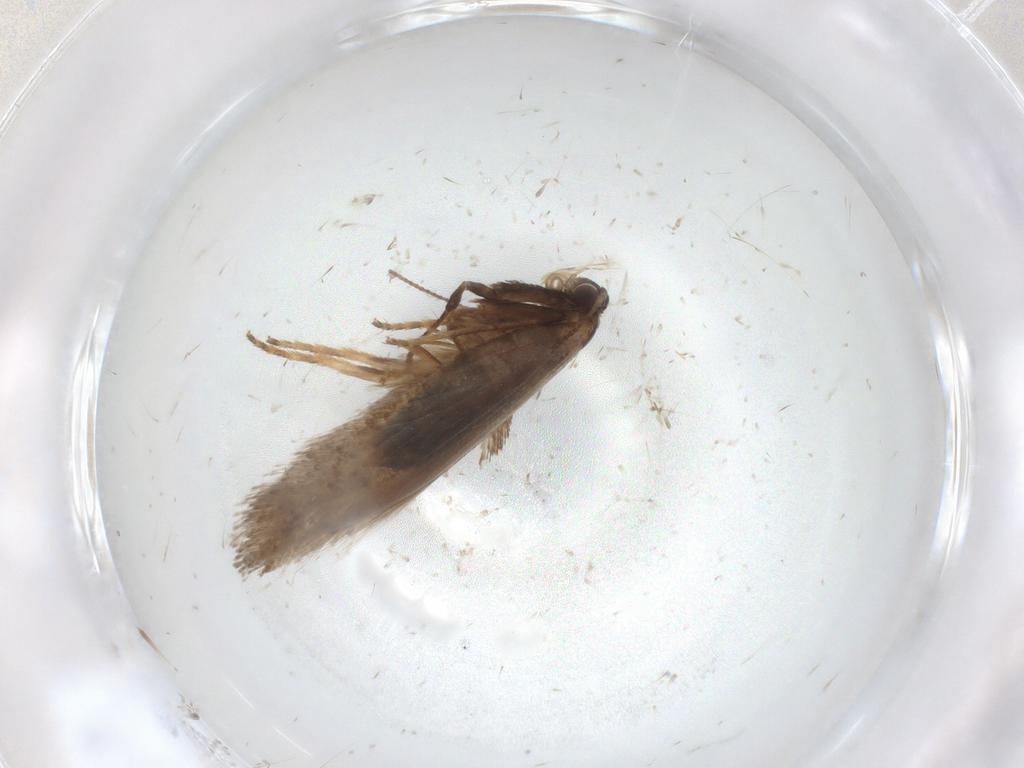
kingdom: Animalia
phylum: Arthropoda
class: Insecta
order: Lepidoptera
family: Nepticulidae
